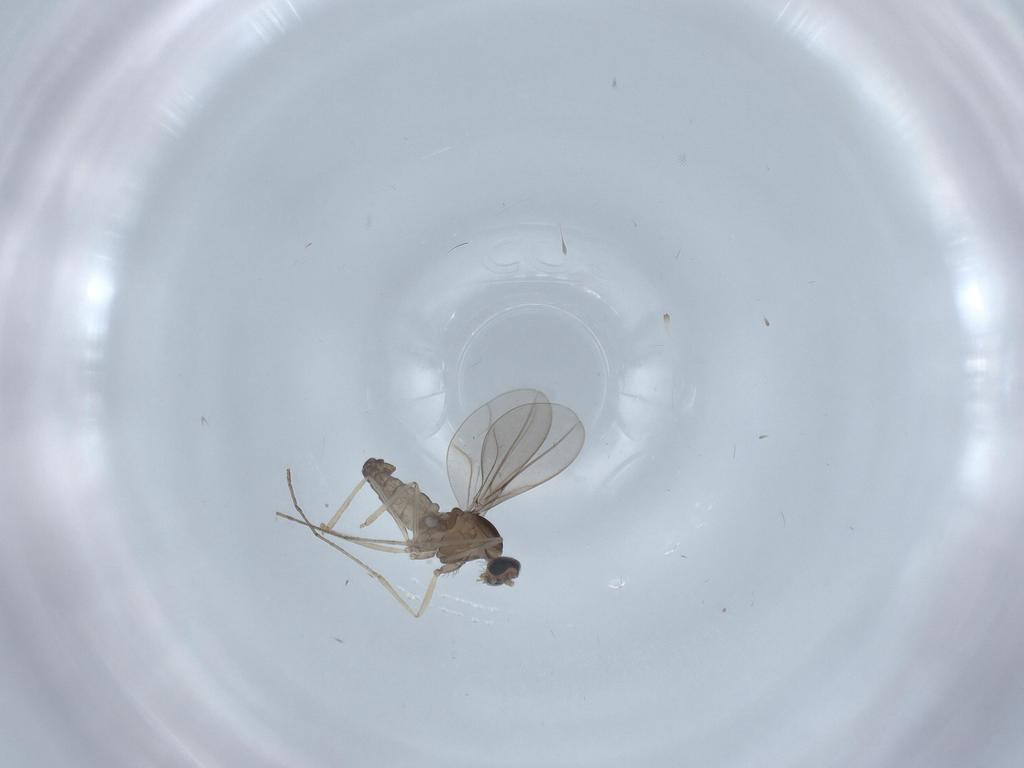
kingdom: Animalia
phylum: Arthropoda
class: Insecta
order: Diptera
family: Cecidomyiidae
